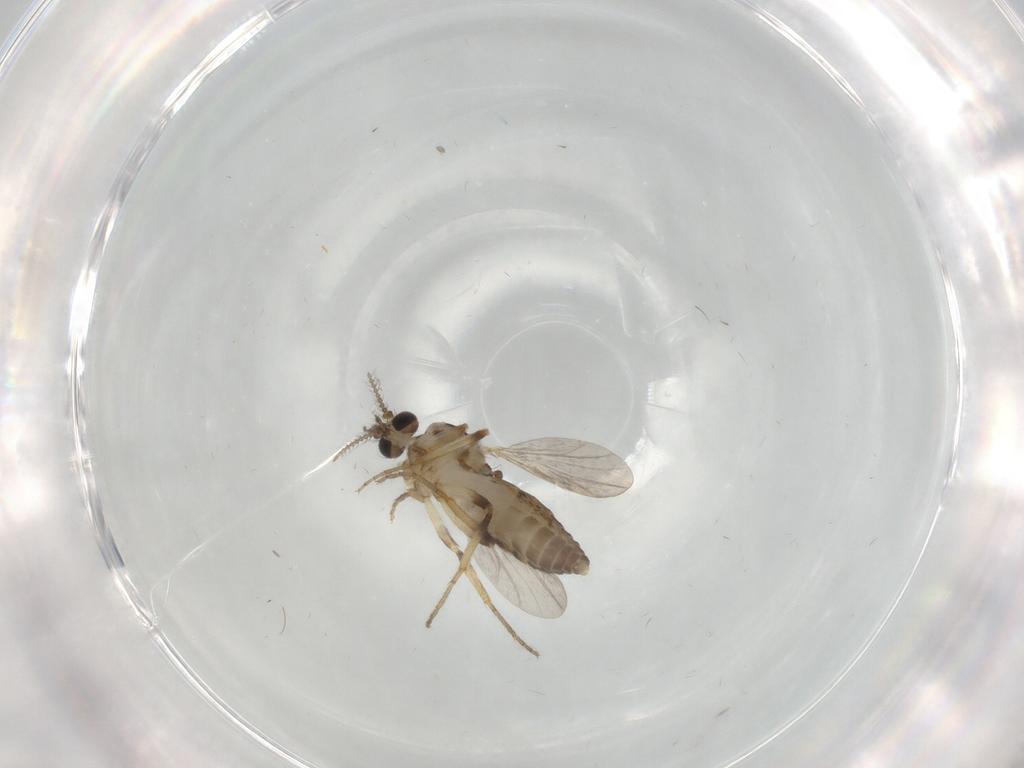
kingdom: Animalia
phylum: Arthropoda
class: Insecta
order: Diptera
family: Ceratopogonidae
